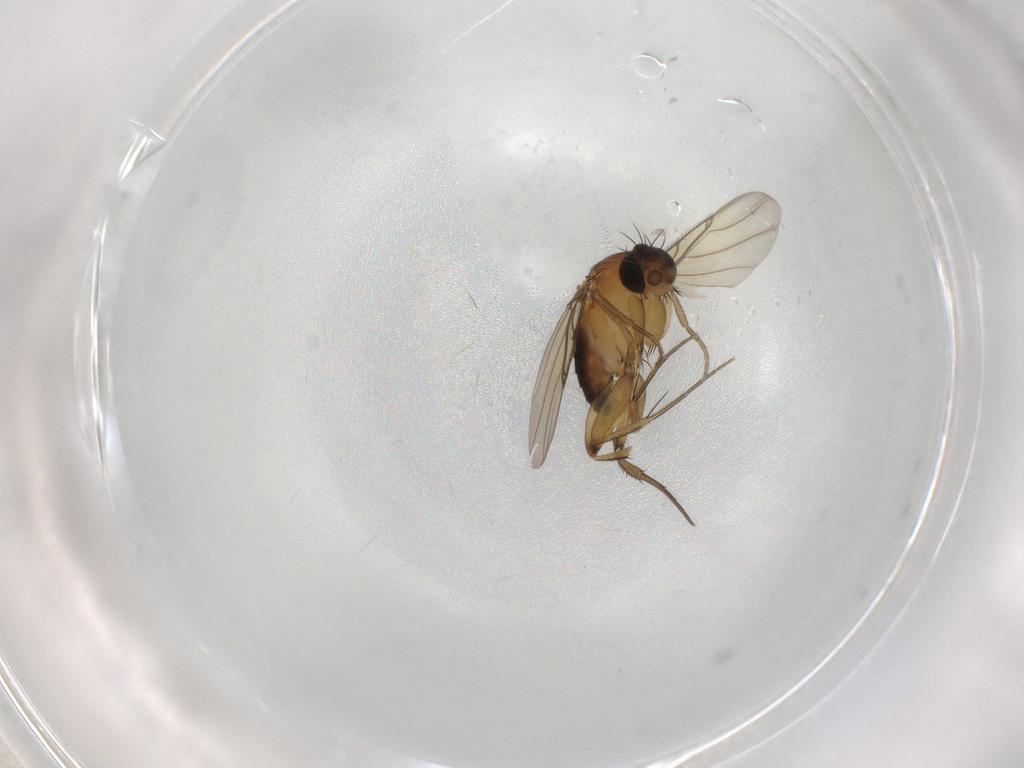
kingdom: Animalia
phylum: Arthropoda
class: Insecta
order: Diptera
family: Phoridae
